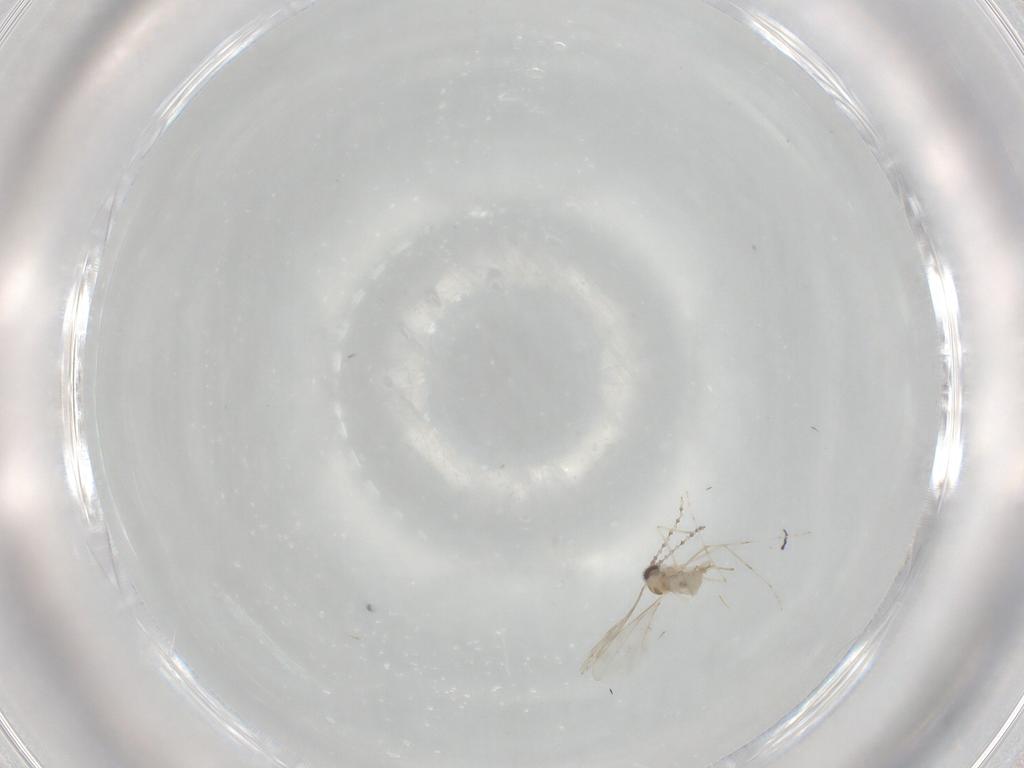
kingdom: Animalia
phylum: Arthropoda
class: Insecta
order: Diptera
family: Cecidomyiidae
